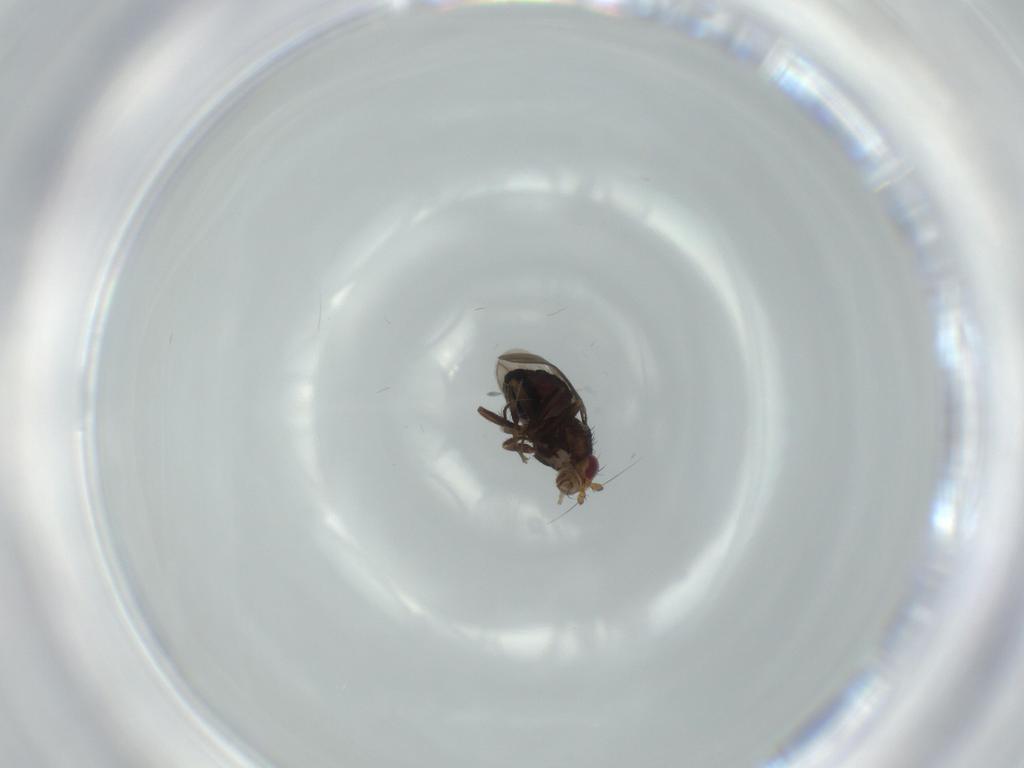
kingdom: Animalia
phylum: Arthropoda
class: Insecta
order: Diptera
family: Sphaeroceridae
